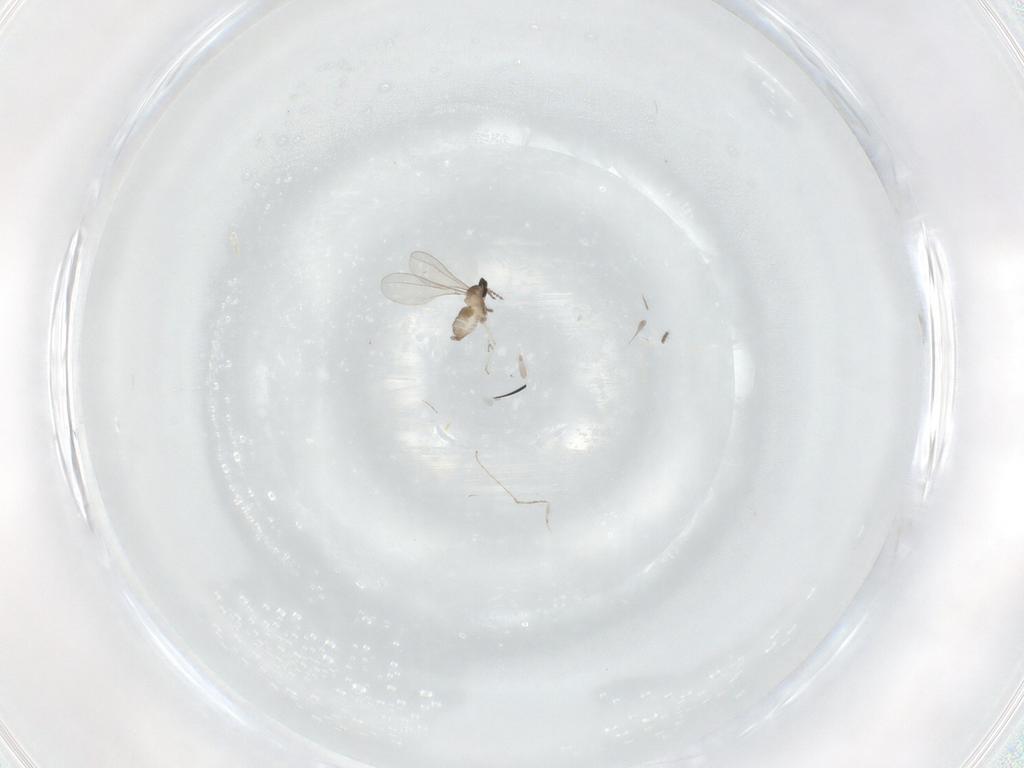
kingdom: Animalia
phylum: Arthropoda
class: Insecta
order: Diptera
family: Cecidomyiidae
